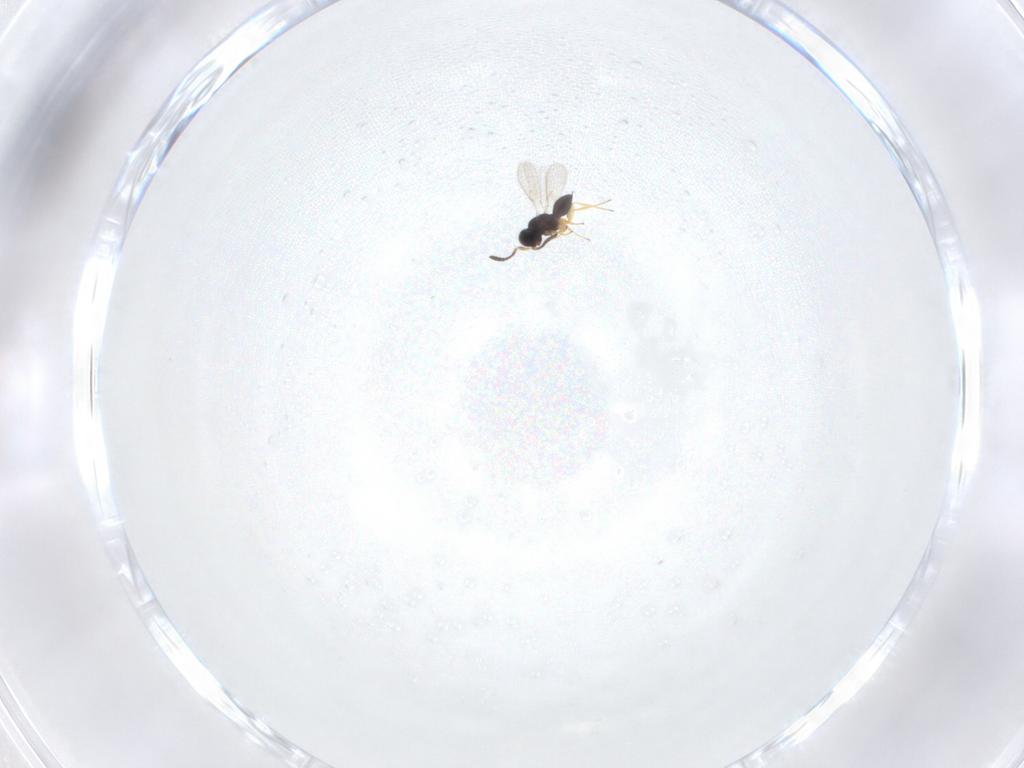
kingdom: Animalia
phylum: Arthropoda
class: Insecta
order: Hymenoptera
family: Scelionidae
